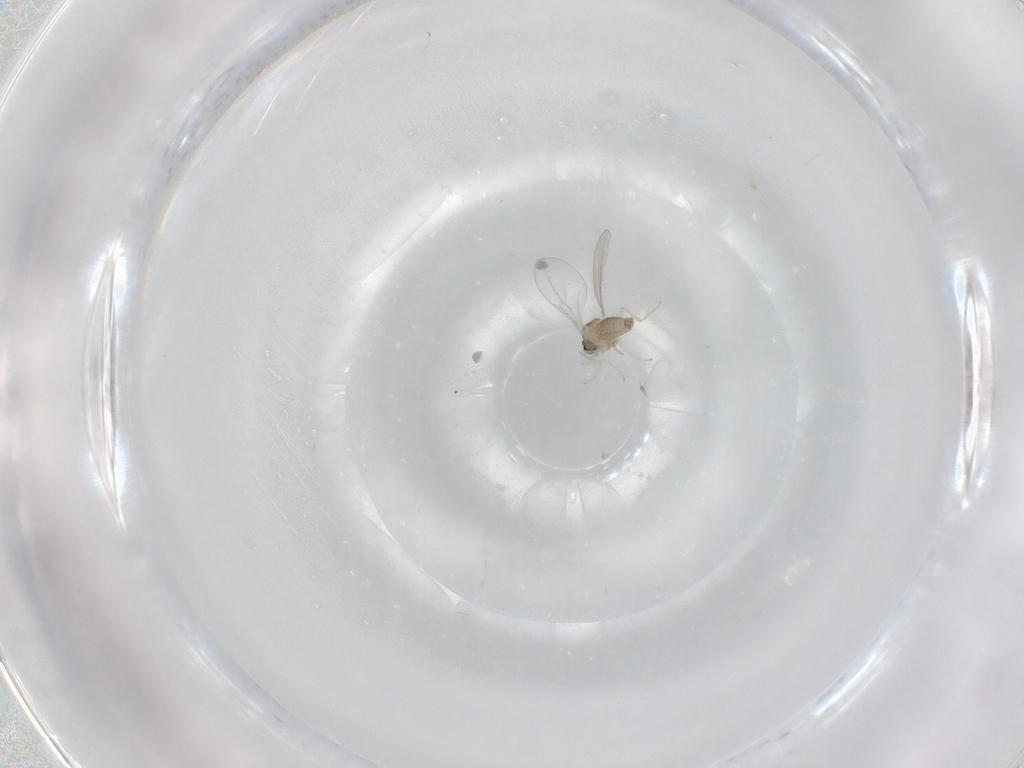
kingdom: Animalia
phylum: Arthropoda
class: Insecta
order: Diptera
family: Cecidomyiidae
